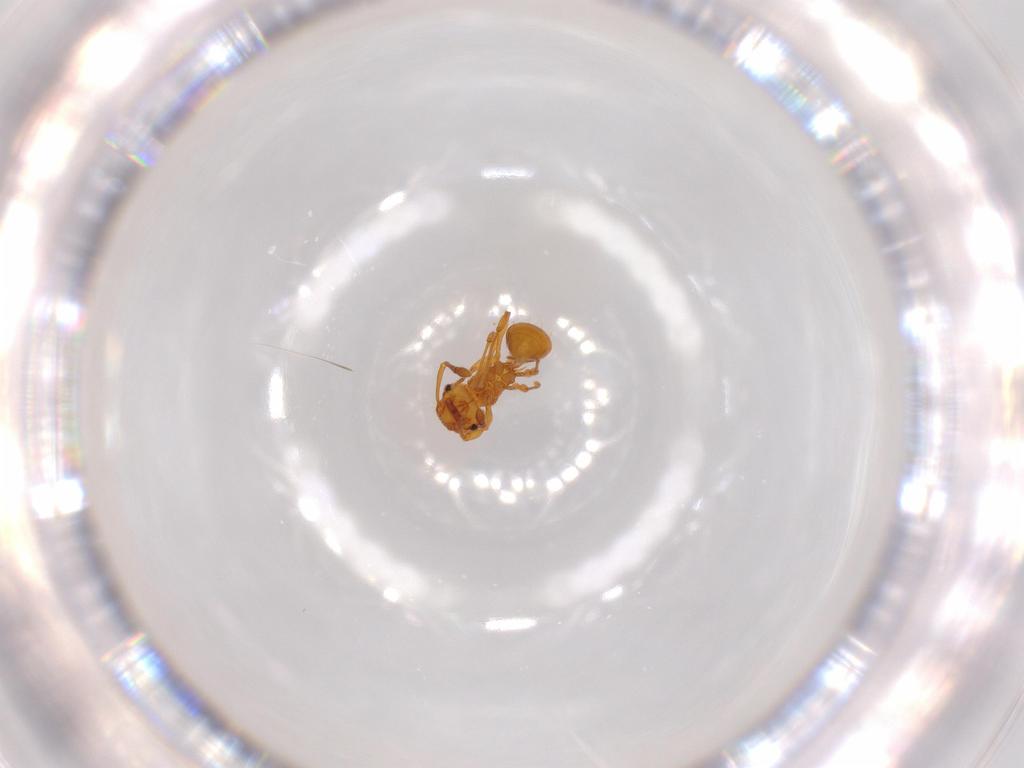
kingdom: Animalia
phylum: Arthropoda
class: Insecta
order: Hymenoptera
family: Formicidae
